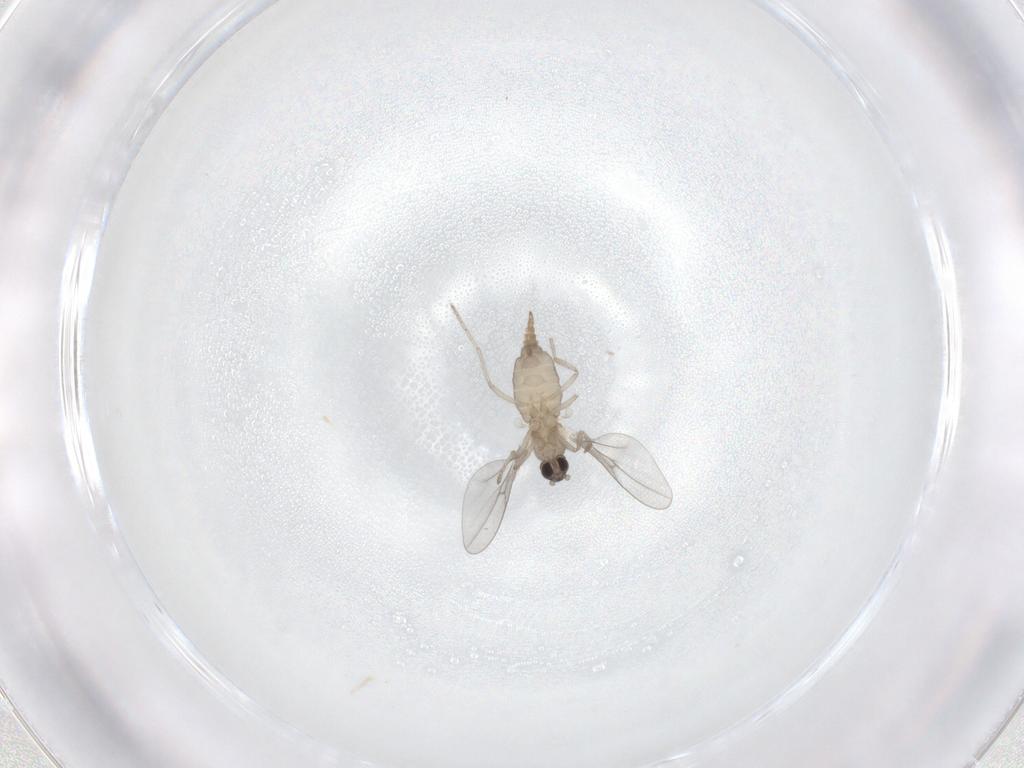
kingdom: Animalia
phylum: Arthropoda
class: Insecta
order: Diptera
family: Chironomidae
